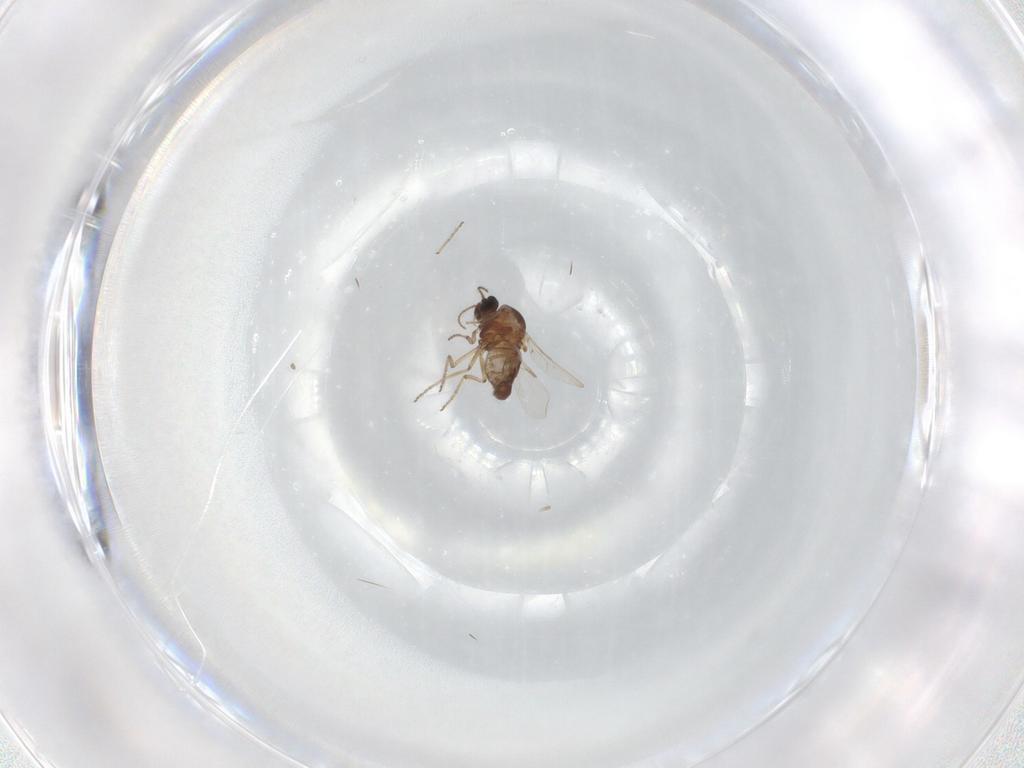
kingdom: Animalia
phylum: Arthropoda
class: Insecta
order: Diptera
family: Ceratopogonidae
